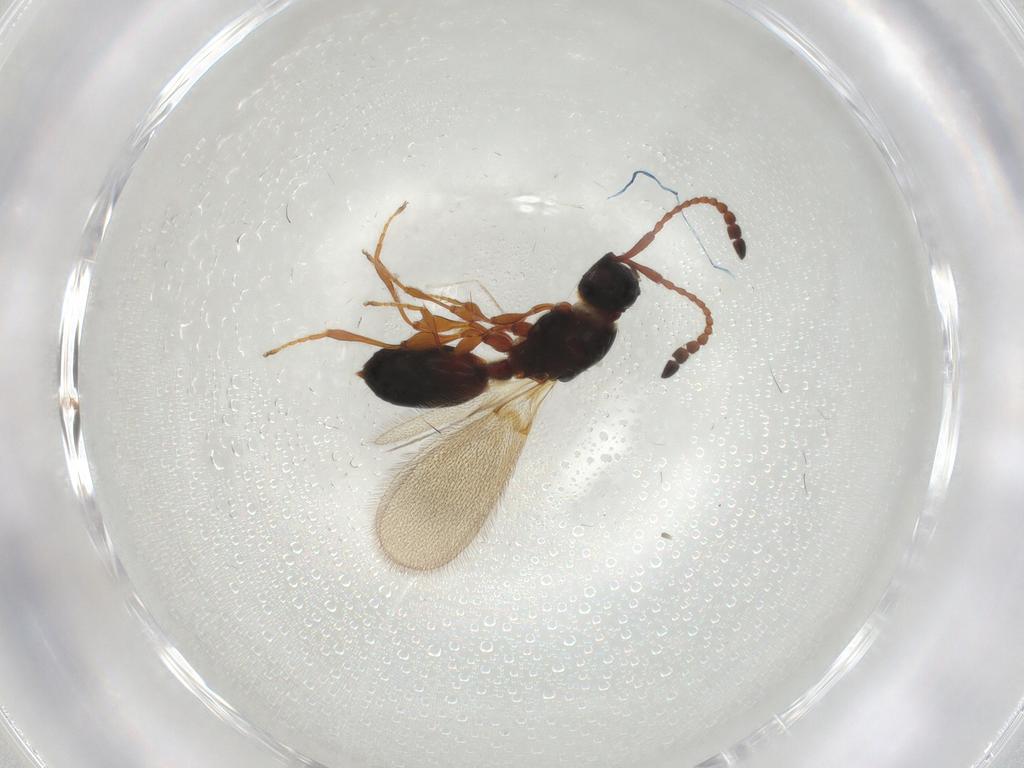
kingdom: Animalia
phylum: Arthropoda
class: Insecta
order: Hymenoptera
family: Diapriidae
